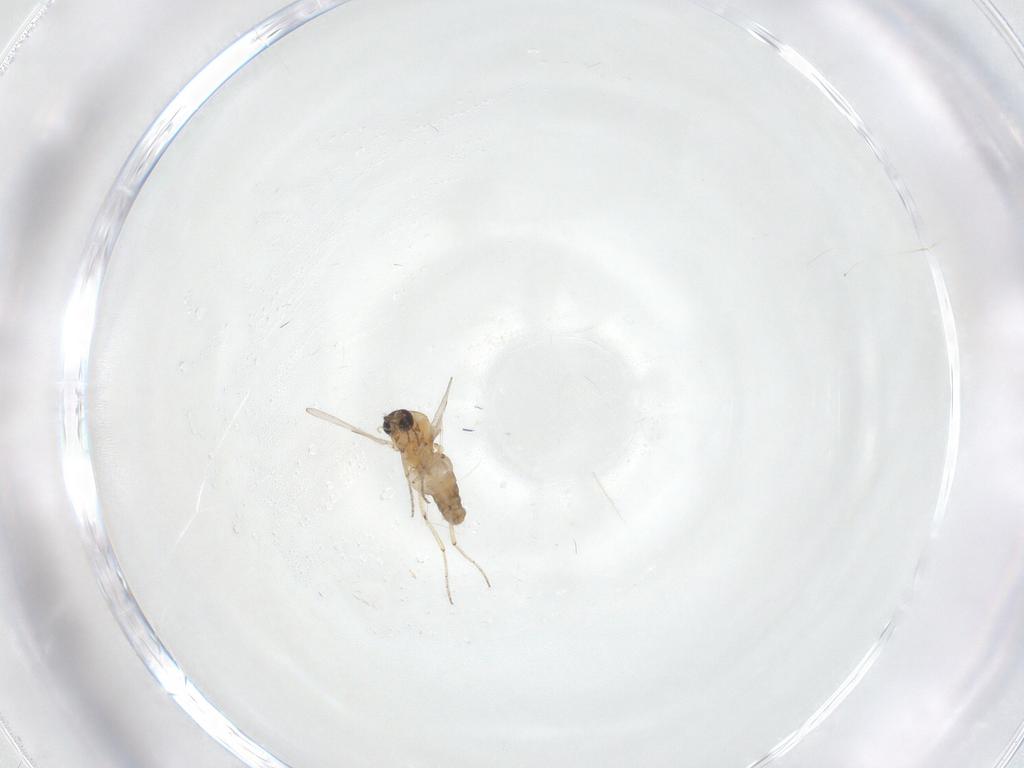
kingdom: Animalia
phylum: Arthropoda
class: Insecta
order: Diptera
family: Ceratopogonidae
